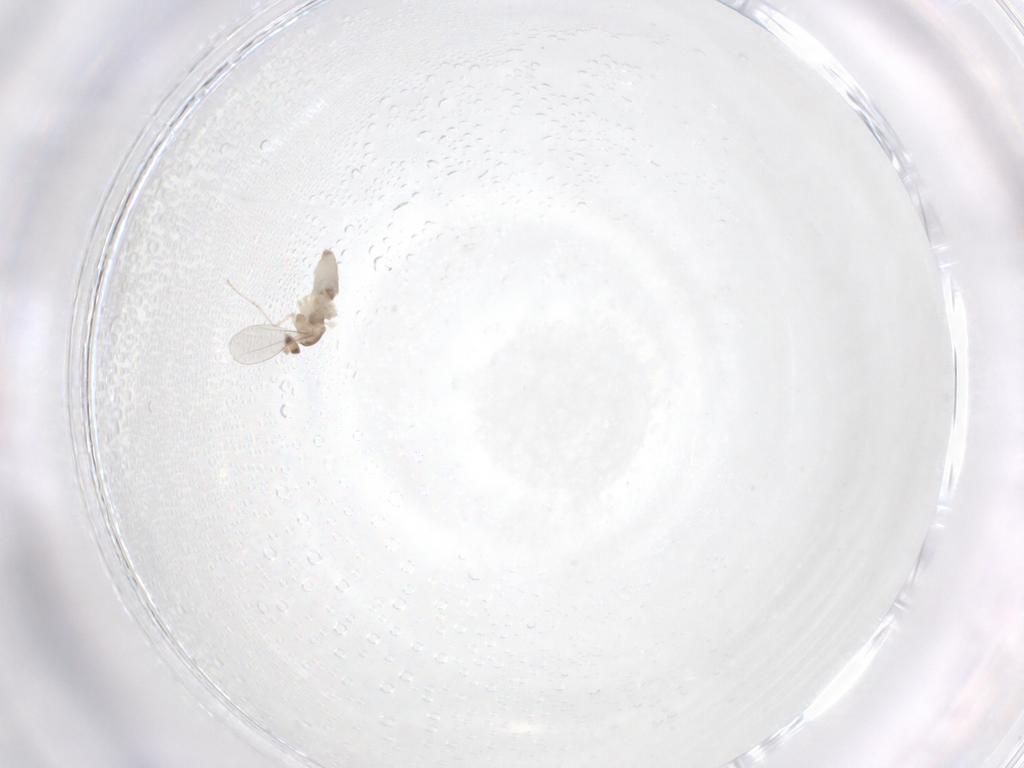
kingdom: Animalia
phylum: Arthropoda
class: Insecta
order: Diptera
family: Cecidomyiidae
